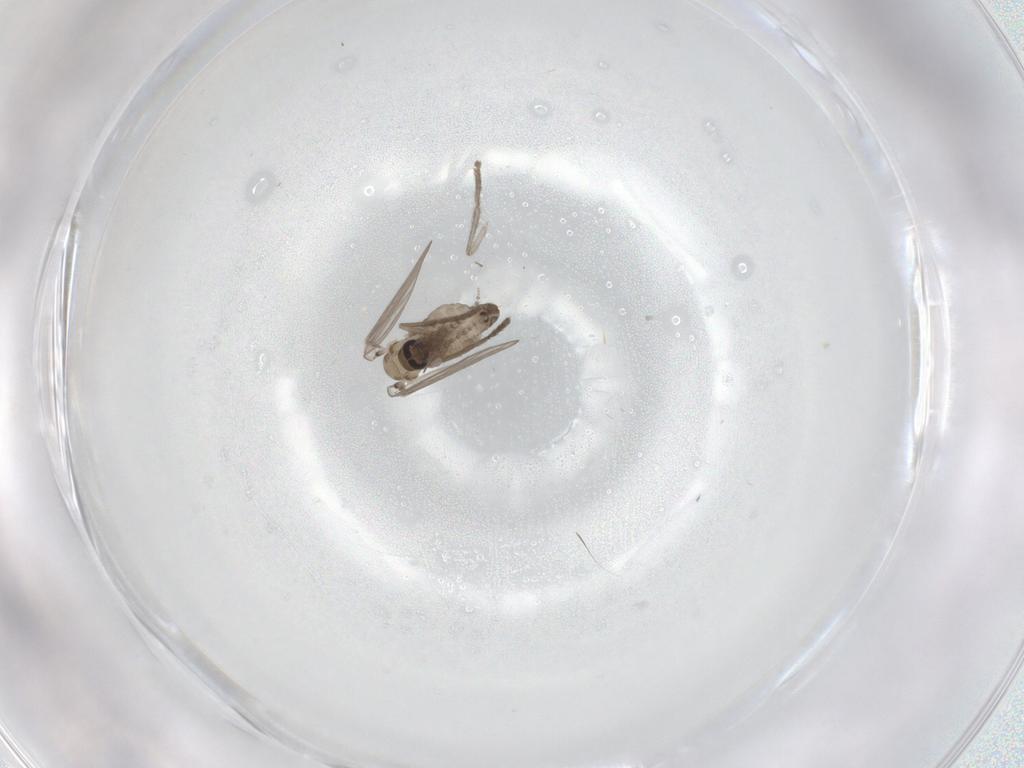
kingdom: Animalia
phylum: Arthropoda
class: Insecta
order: Diptera
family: Psychodidae
